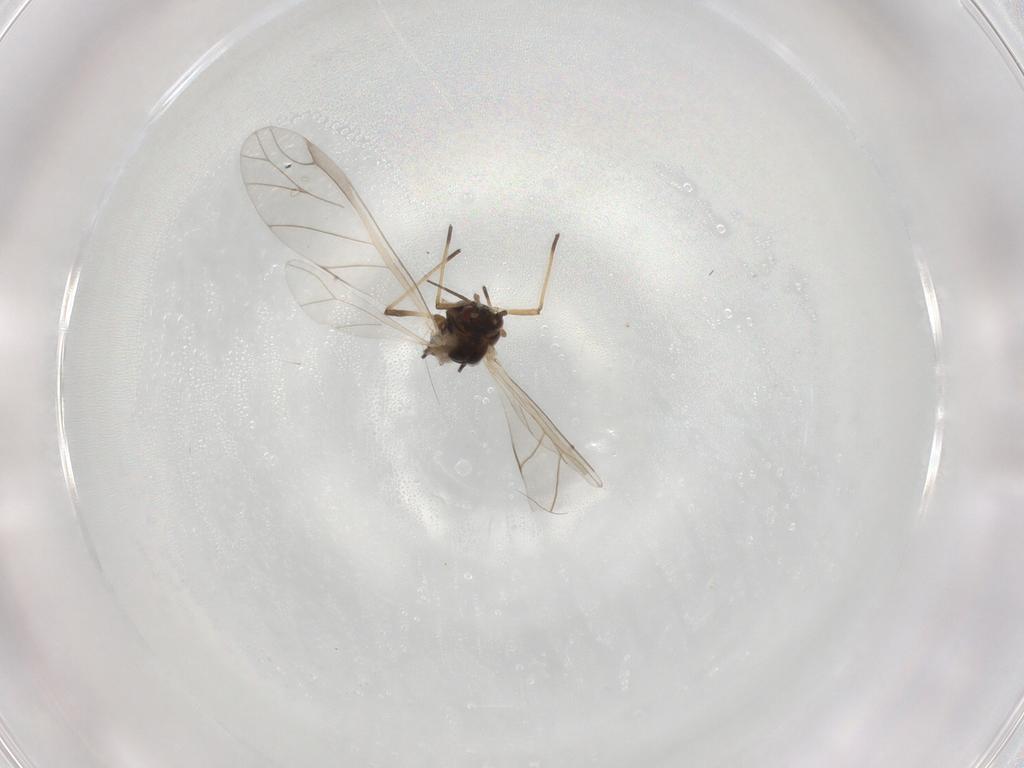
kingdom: Animalia
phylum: Arthropoda
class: Insecta
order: Hemiptera
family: Aphididae
